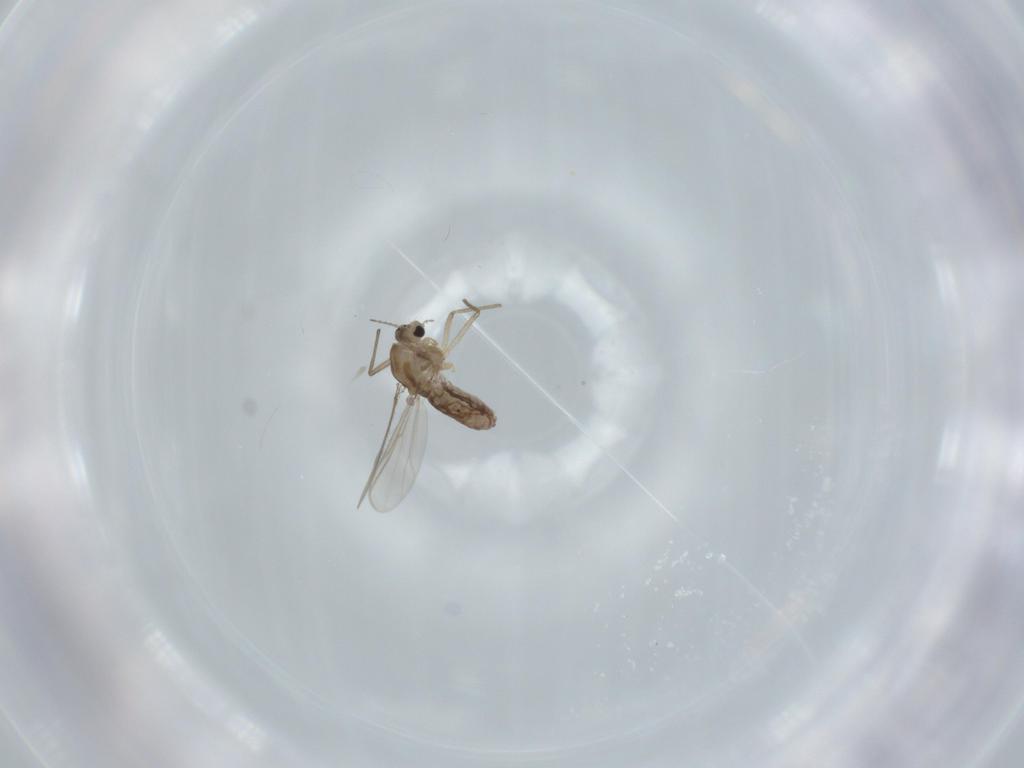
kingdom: Animalia
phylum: Arthropoda
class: Insecta
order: Diptera
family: Chironomidae
